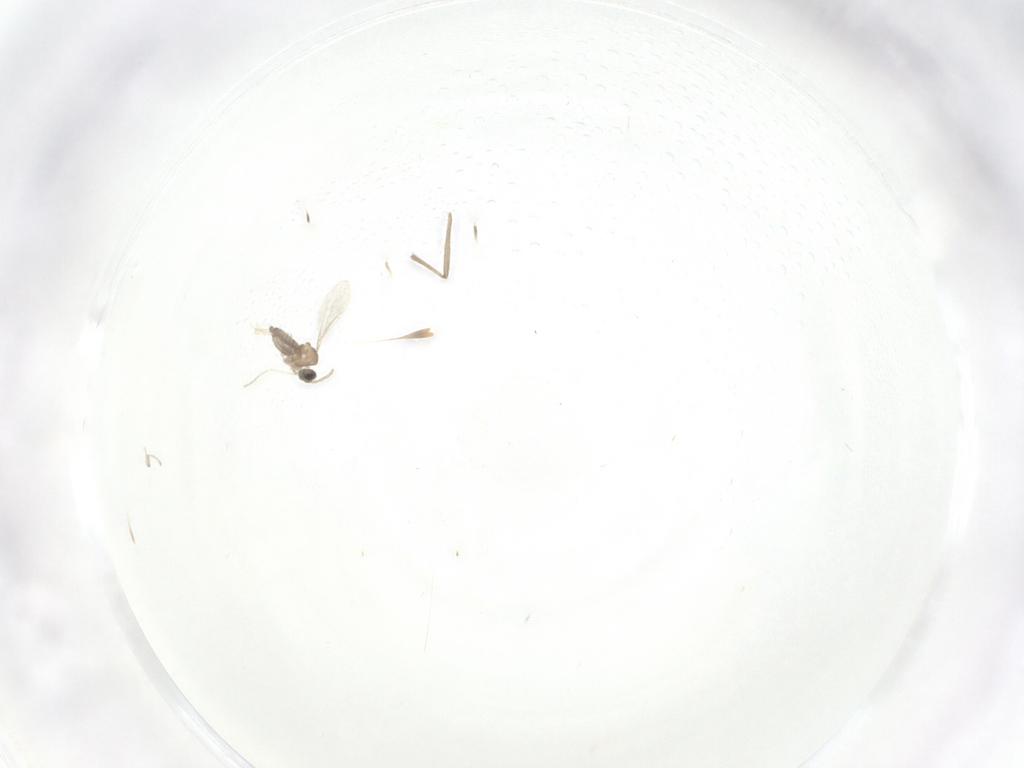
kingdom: Animalia
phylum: Arthropoda
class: Insecta
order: Diptera
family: Cecidomyiidae
